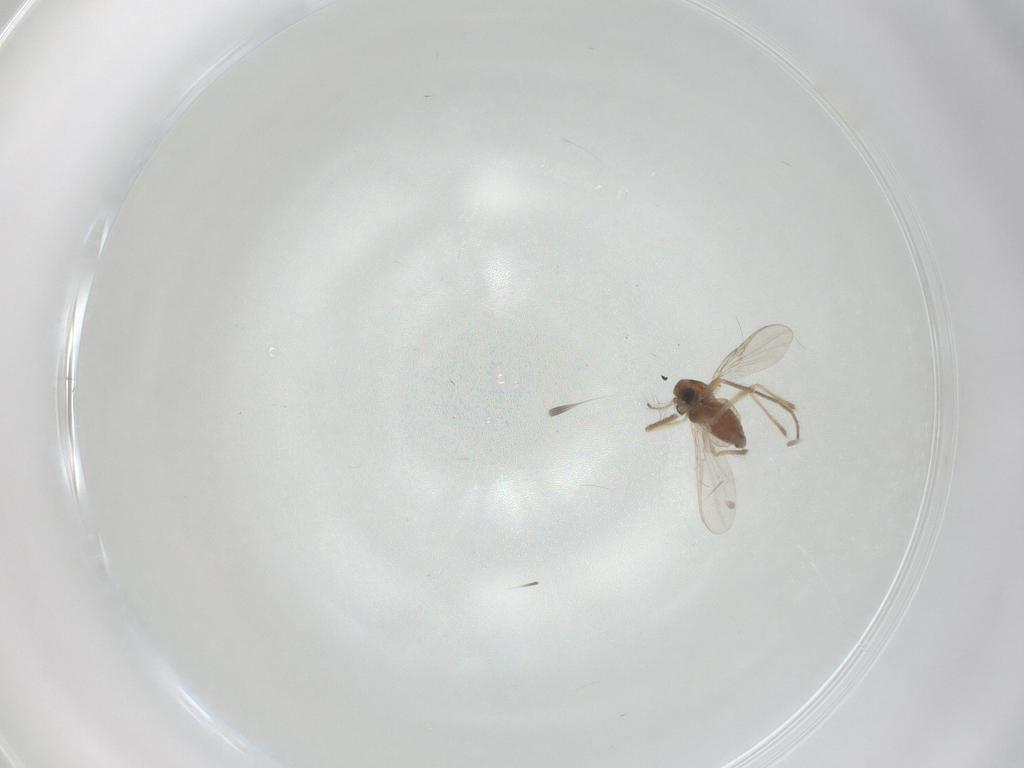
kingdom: Animalia
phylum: Arthropoda
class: Insecta
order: Diptera
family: Chironomidae
